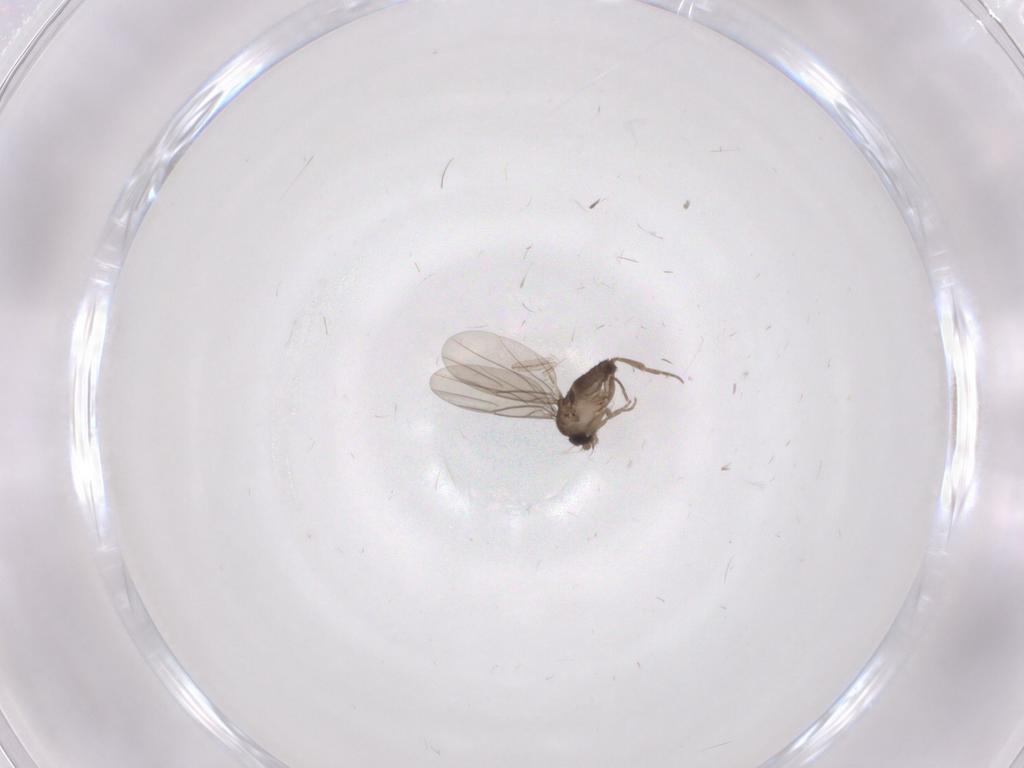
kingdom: Animalia
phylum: Arthropoda
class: Insecta
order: Diptera
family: Phoridae
